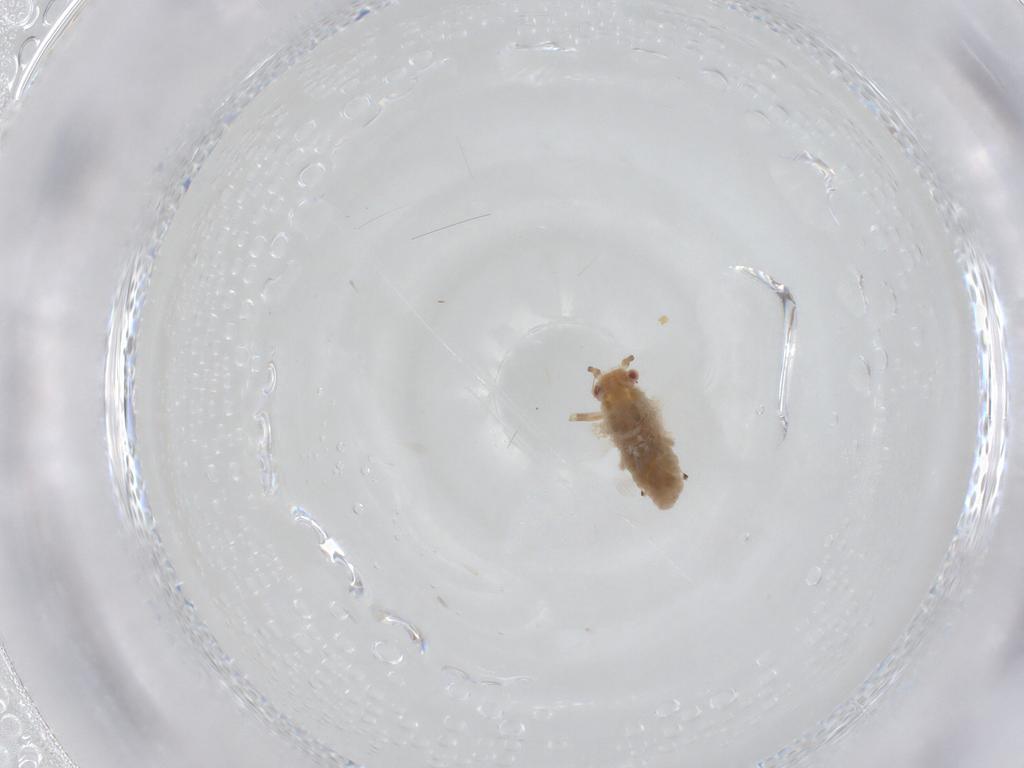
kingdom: Animalia
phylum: Arthropoda
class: Insecta
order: Hemiptera
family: Aphididae
